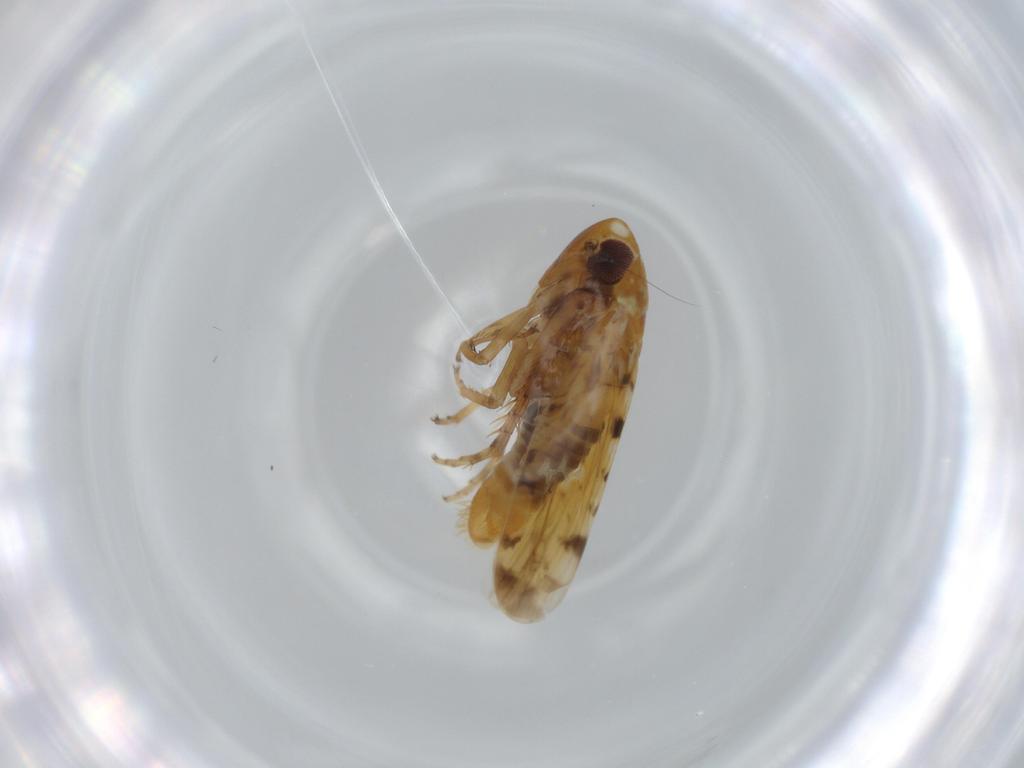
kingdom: Animalia
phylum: Arthropoda
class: Insecta
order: Hemiptera
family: Cicadellidae
